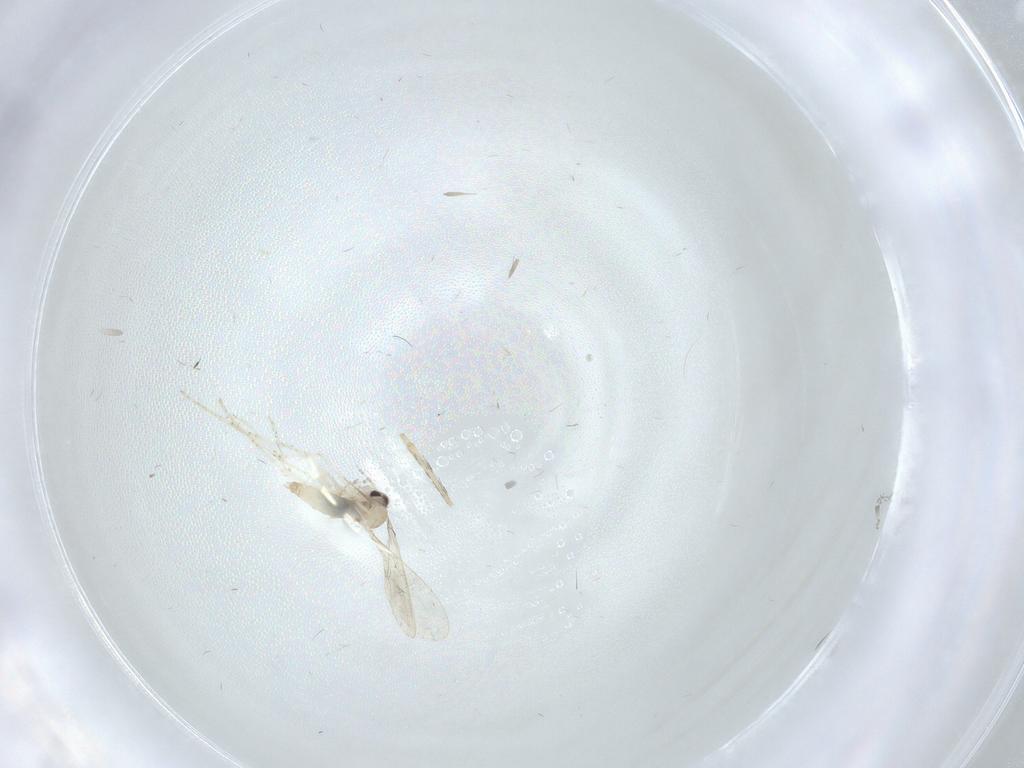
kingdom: Animalia
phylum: Arthropoda
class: Insecta
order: Diptera
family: Cecidomyiidae
